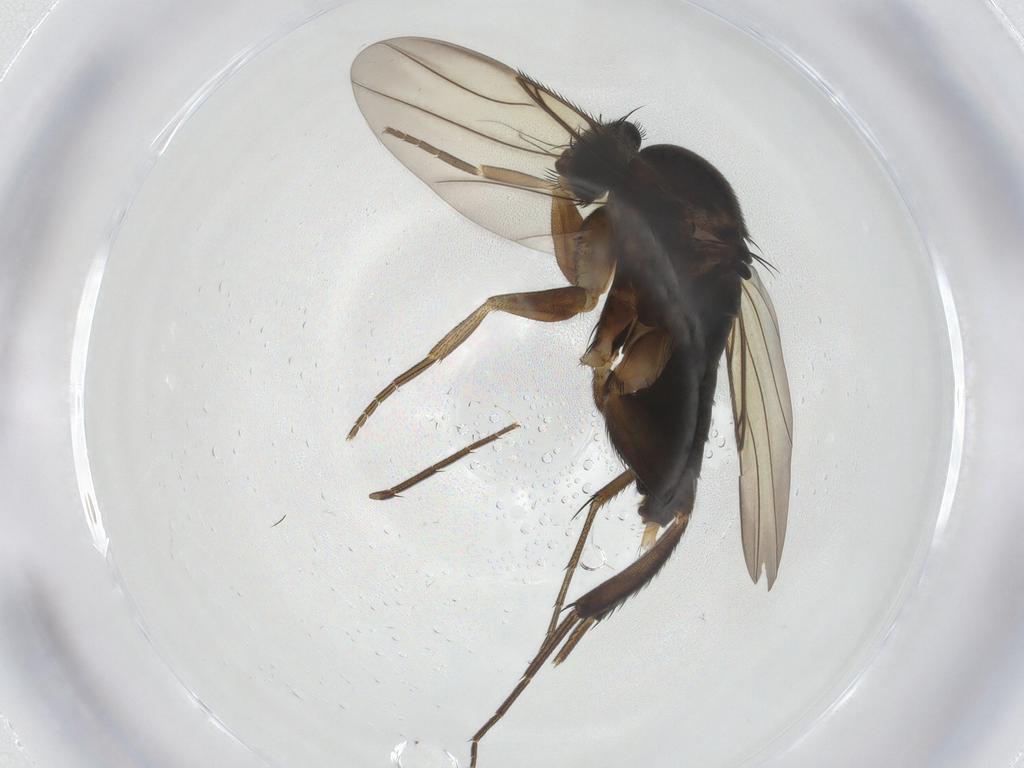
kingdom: Animalia
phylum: Arthropoda
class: Insecta
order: Diptera
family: Phoridae
